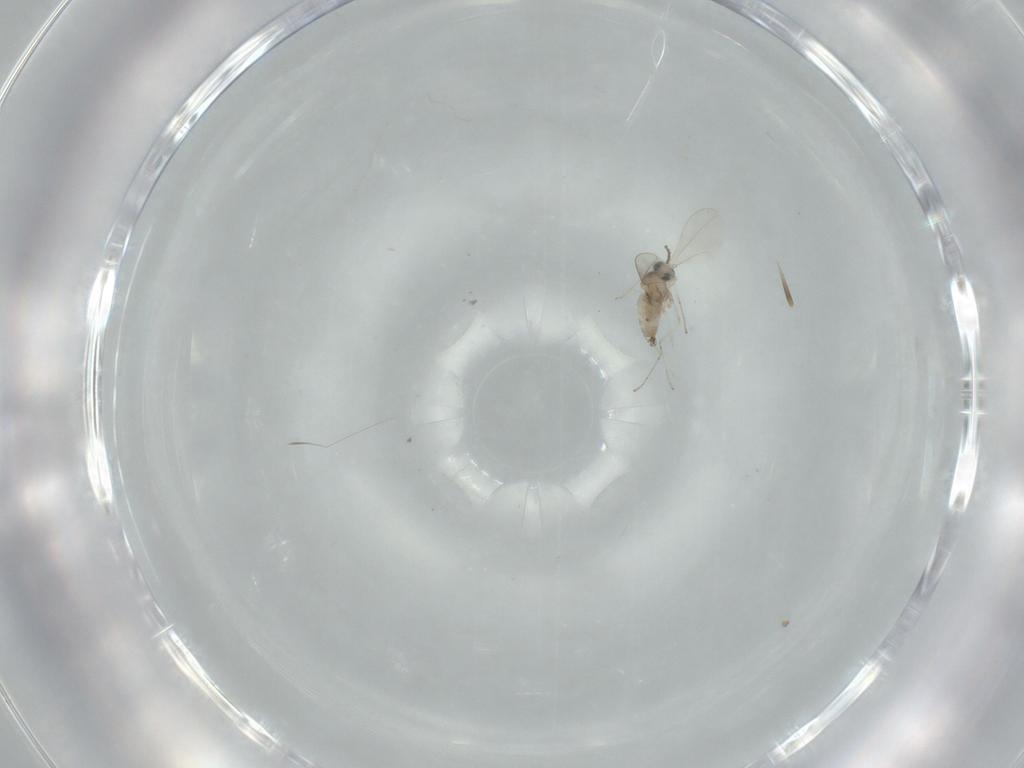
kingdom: Animalia
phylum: Arthropoda
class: Insecta
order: Diptera
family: Cecidomyiidae
